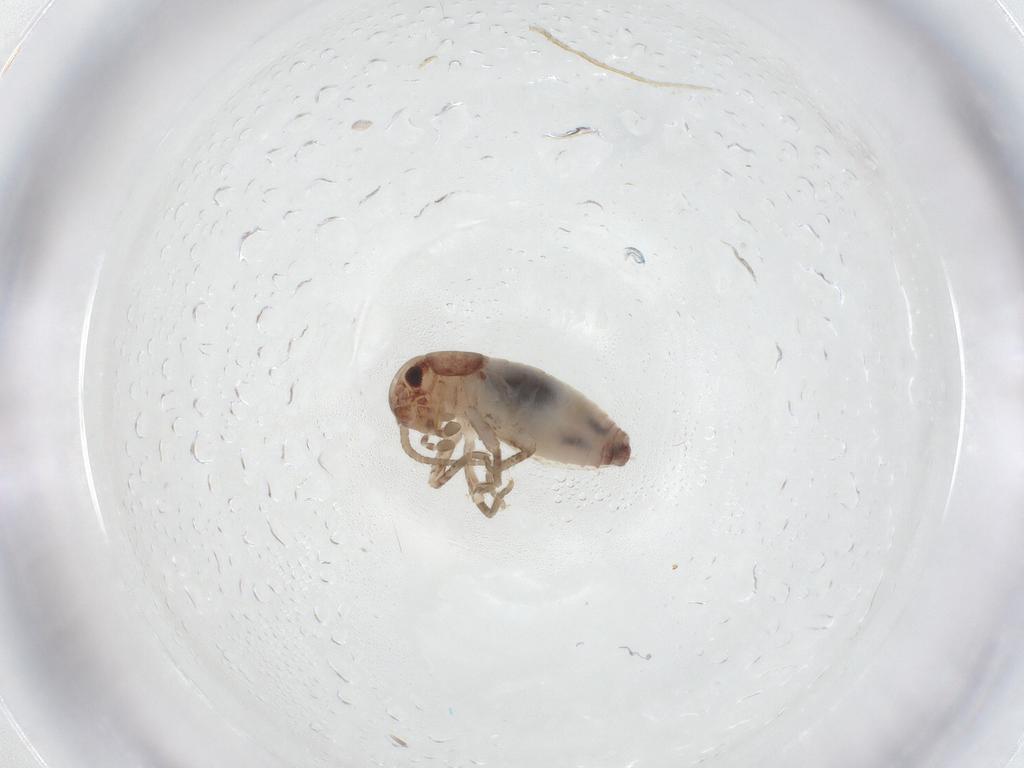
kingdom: Animalia
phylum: Arthropoda
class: Insecta
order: Orthoptera
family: Mogoplistidae
